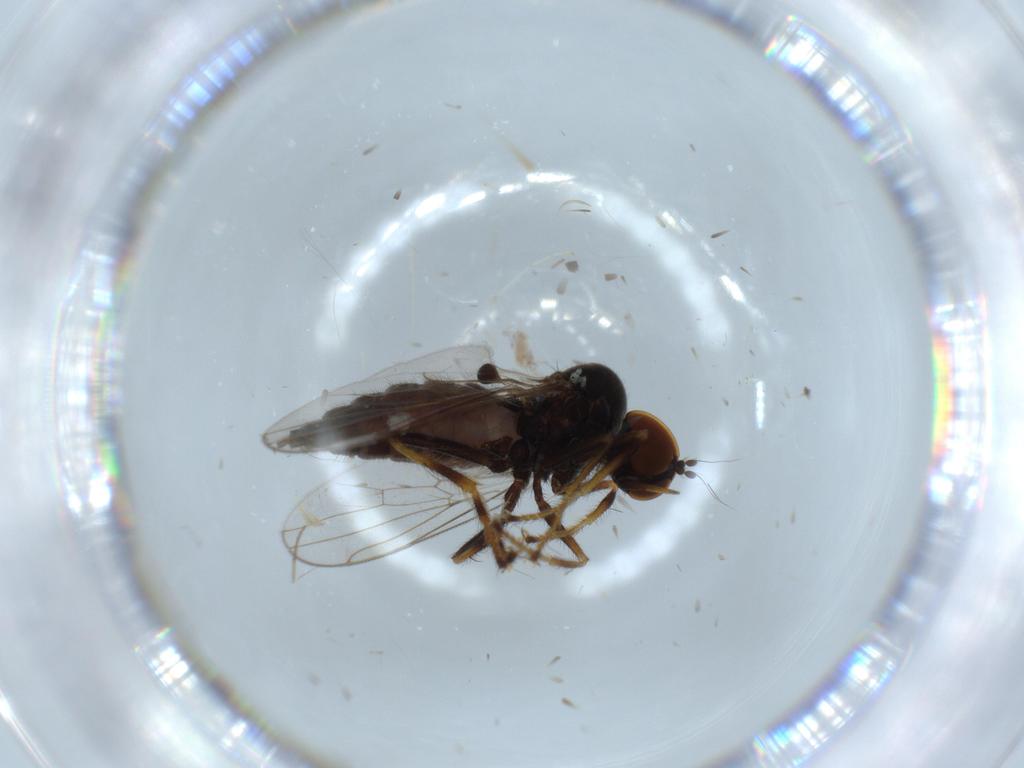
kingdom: Animalia
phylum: Arthropoda
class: Insecta
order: Diptera
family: Hybotidae
